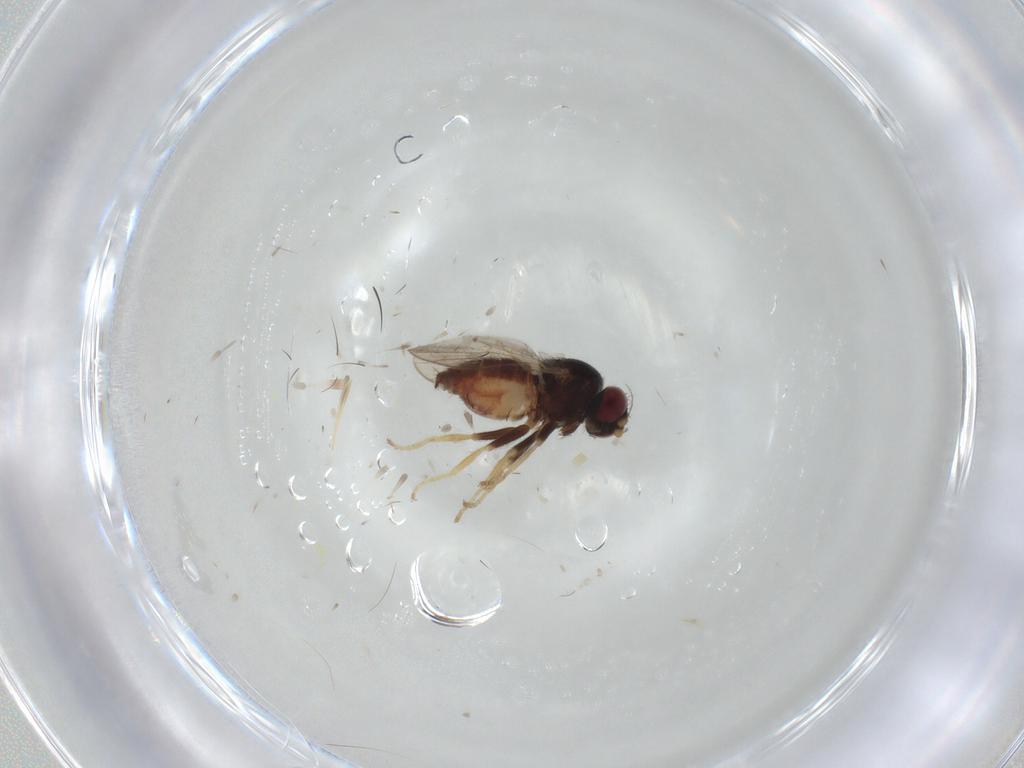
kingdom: Animalia
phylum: Arthropoda
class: Insecta
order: Diptera
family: Chloropidae
